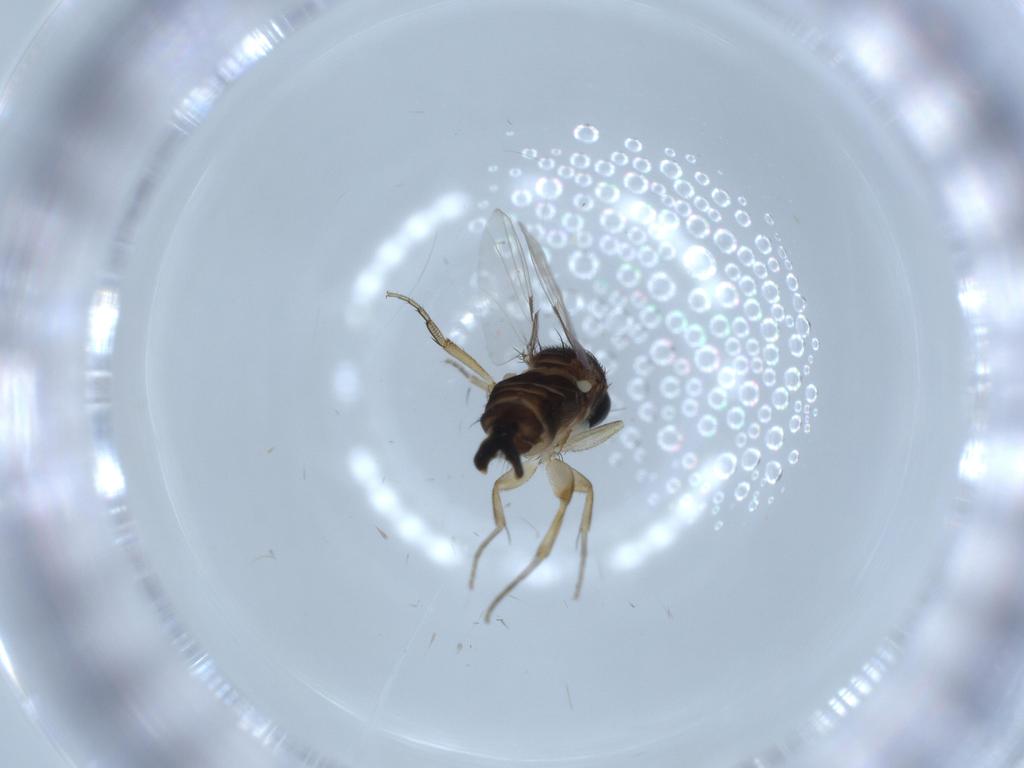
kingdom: Animalia
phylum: Arthropoda
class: Insecta
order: Diptera
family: Phoridae
